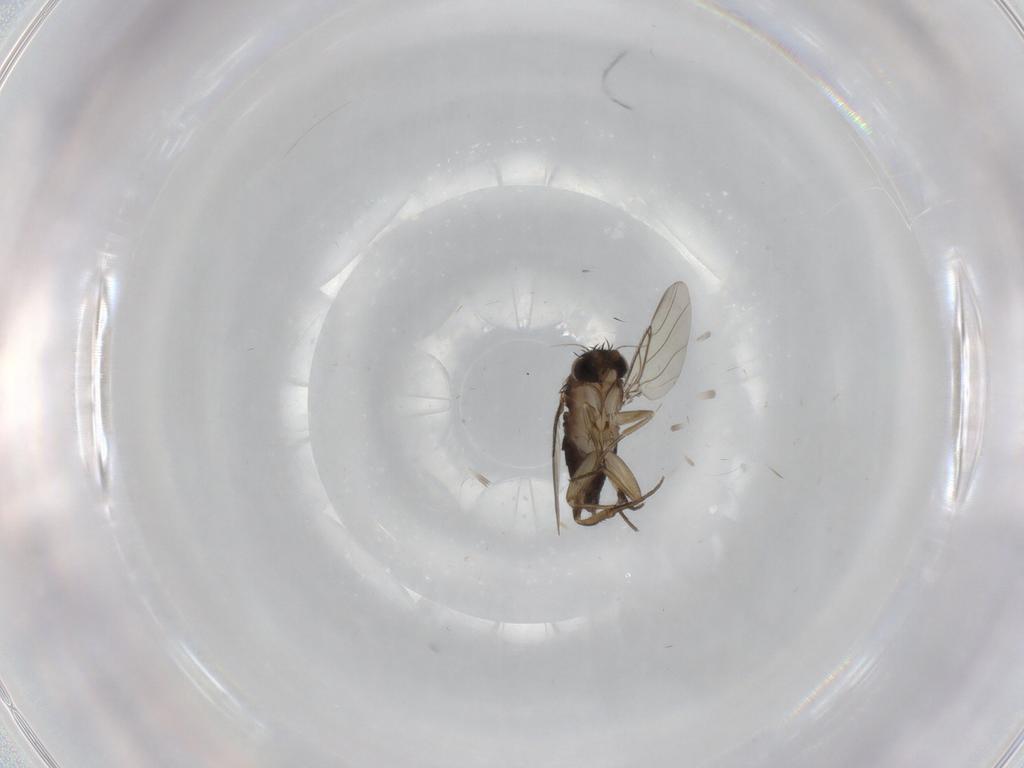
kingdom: Animalia
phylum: Arthropoda
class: Insecta
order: Diptera
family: Phoridae
